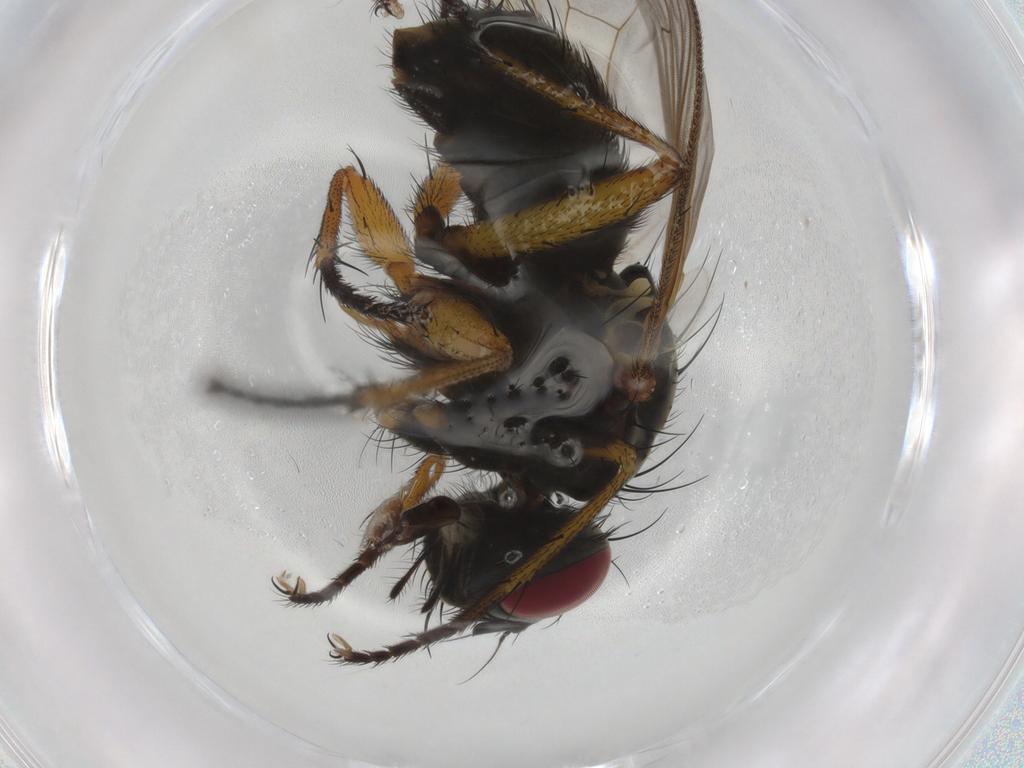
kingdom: Animalia
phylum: Arthropoda
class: Insecta
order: Diptera
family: Muscidae
